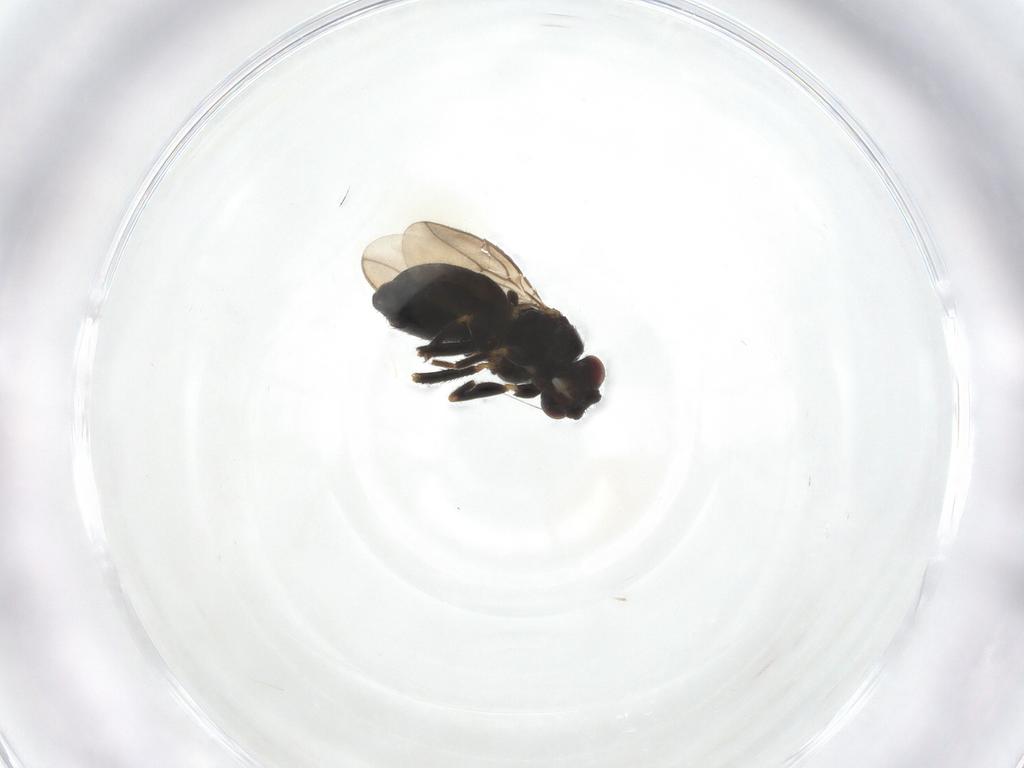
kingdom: Animalia
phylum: Arthropoda
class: Insecta
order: Diptera
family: Sphaeroceridae
